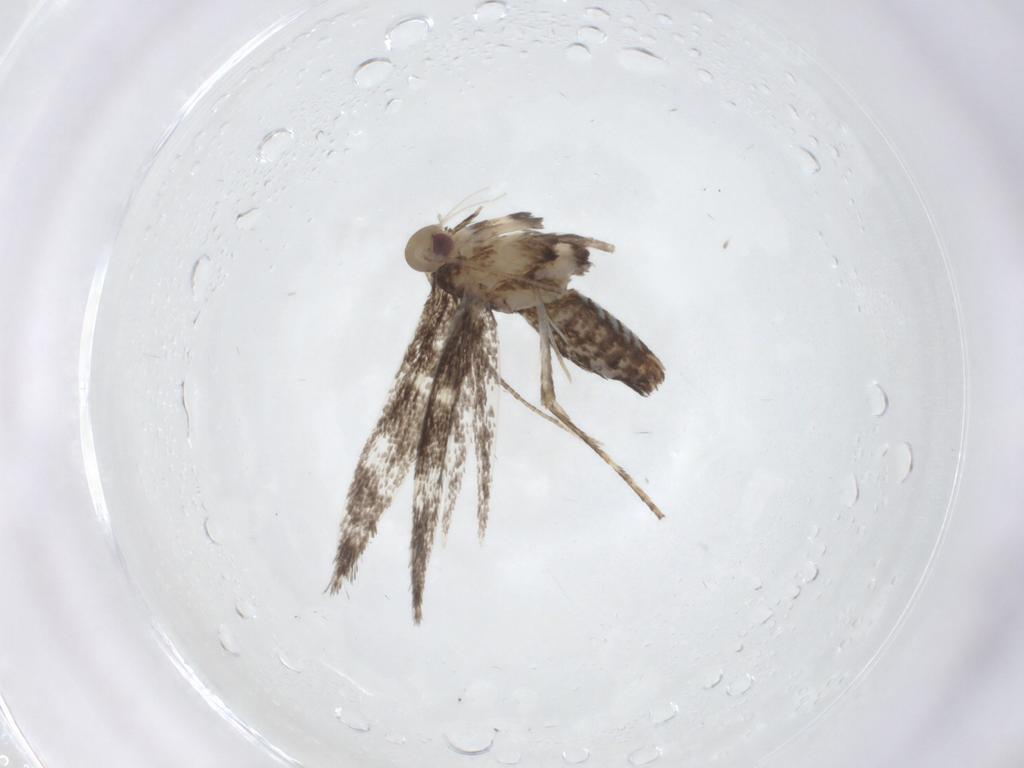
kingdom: Animalia
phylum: Arthropoda
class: Insecta
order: Lepidoptera
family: Gracillariidae
